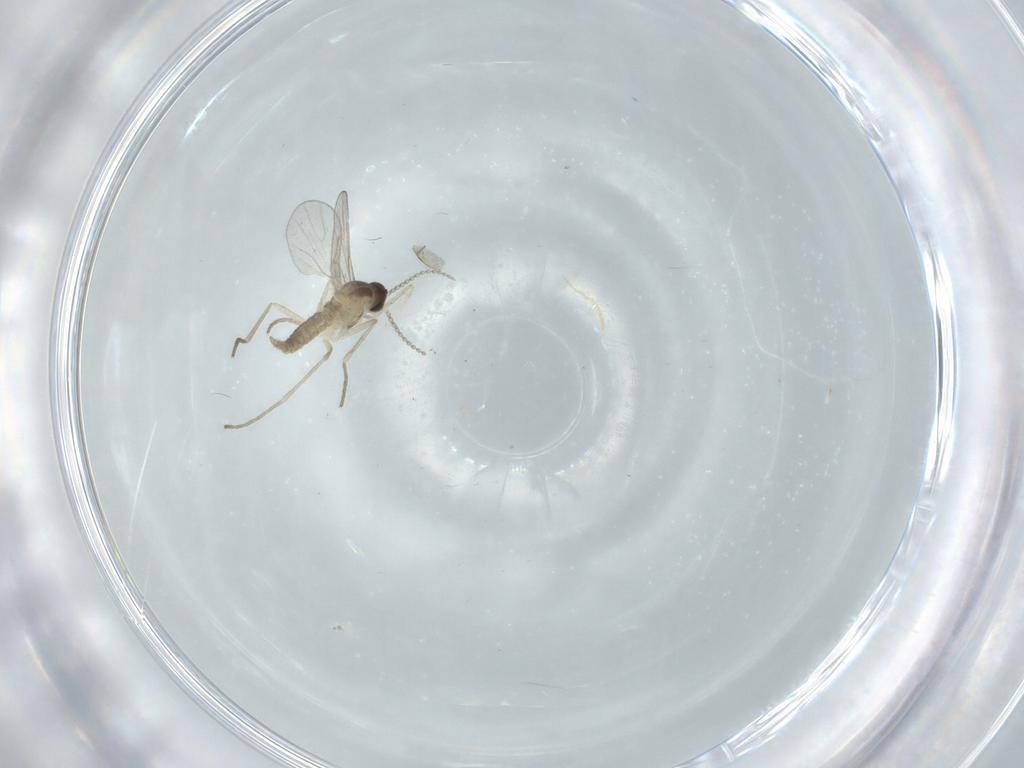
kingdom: Animalia
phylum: Arthropoda
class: Insecta
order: Diptera
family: Cecidomyiidae
